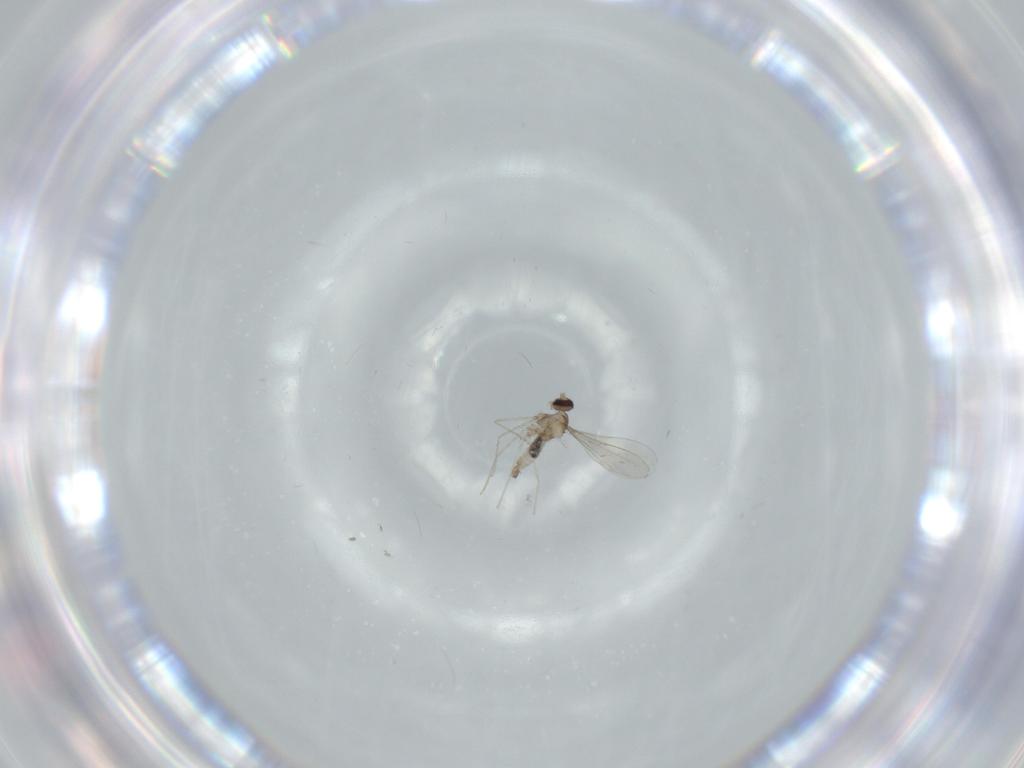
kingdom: Animalia
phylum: Arthropoda
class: Insecta
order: Diptera
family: Cecidomyiidae
